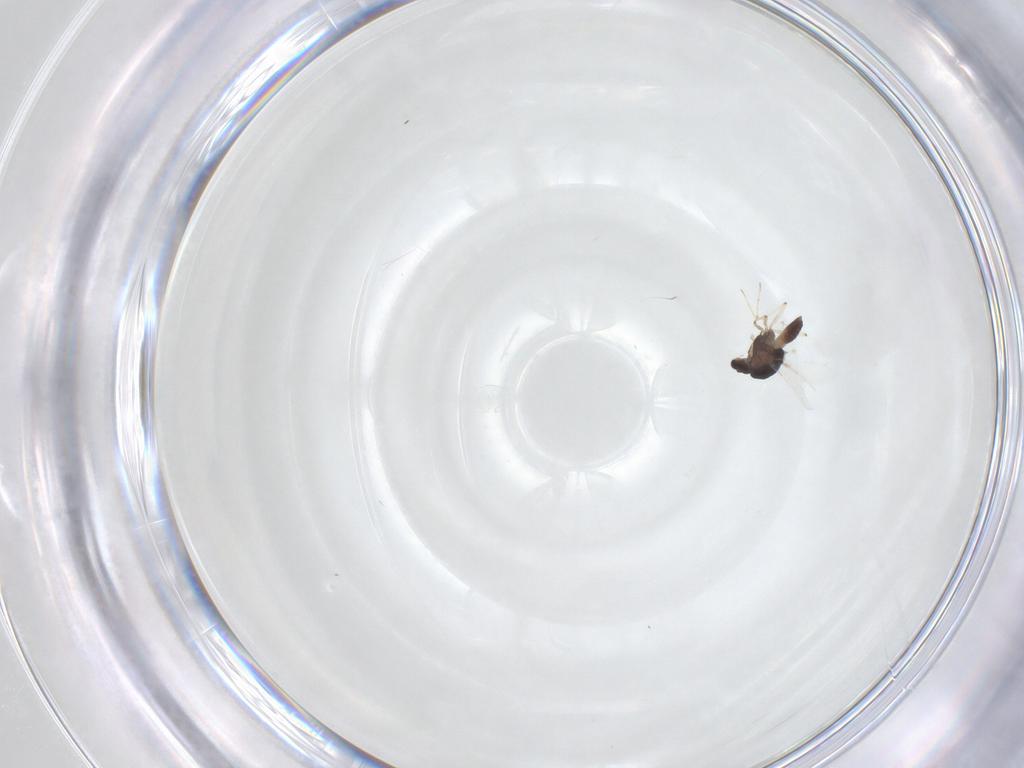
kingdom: Animalia
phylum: Arthropoda
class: Insecta
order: Diptera
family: Chironomidae
